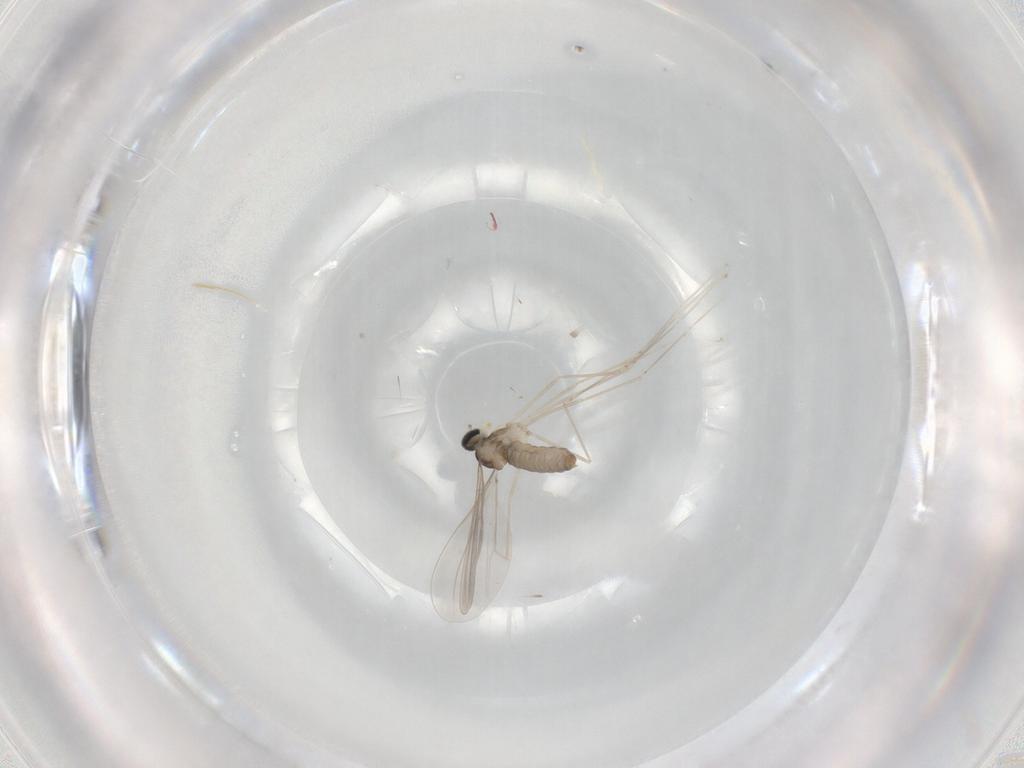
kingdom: Animalia
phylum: Arthropoda
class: Insecta
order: Diptera
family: Cecidomyiidae
